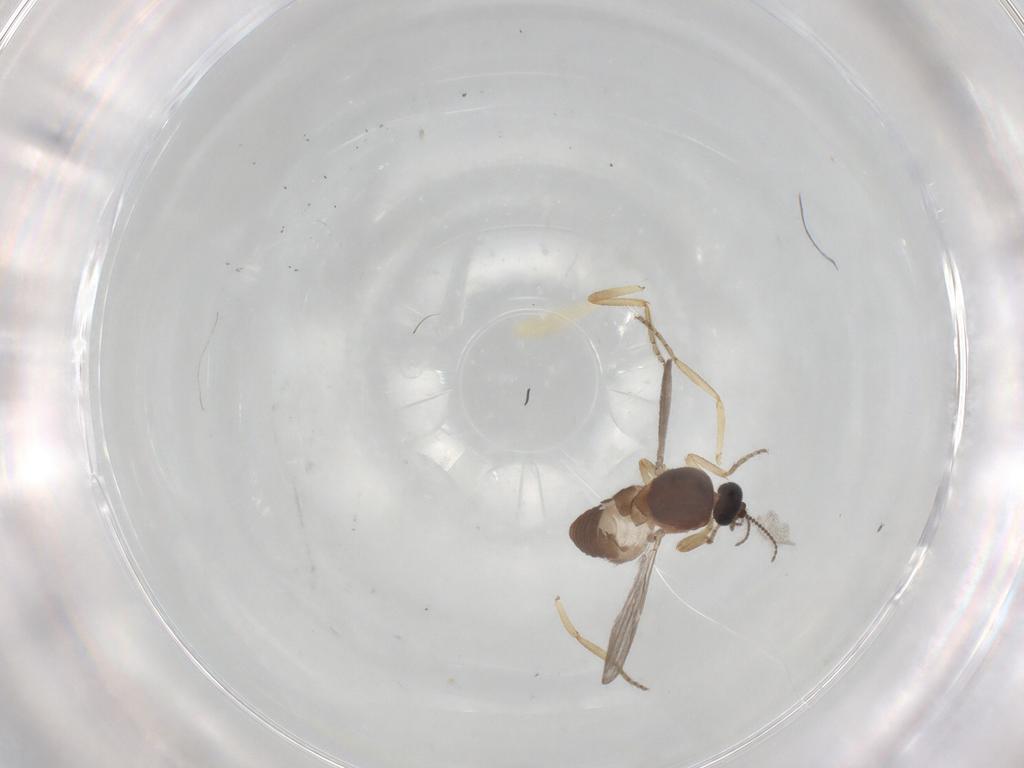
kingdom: Animalia
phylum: Arthropoda
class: Insecta
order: Diptera
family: Ceratopogonidae
